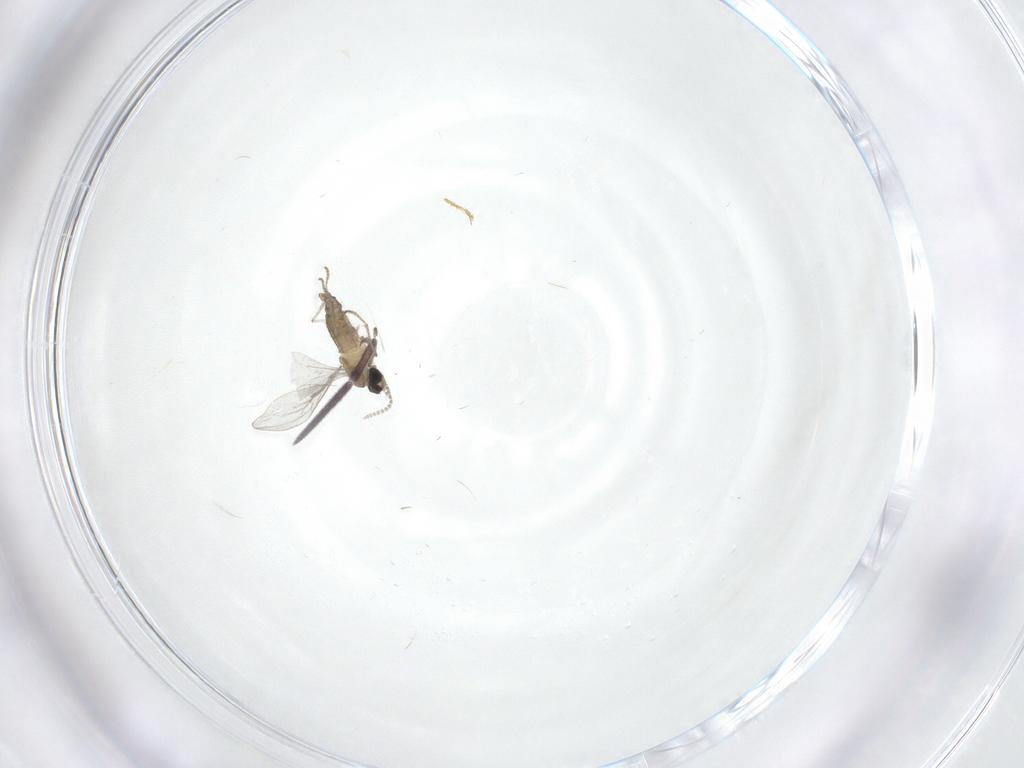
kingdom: Animalia
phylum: Arthropoda
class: Insecta
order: Diptera
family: Cecidomyiidae
